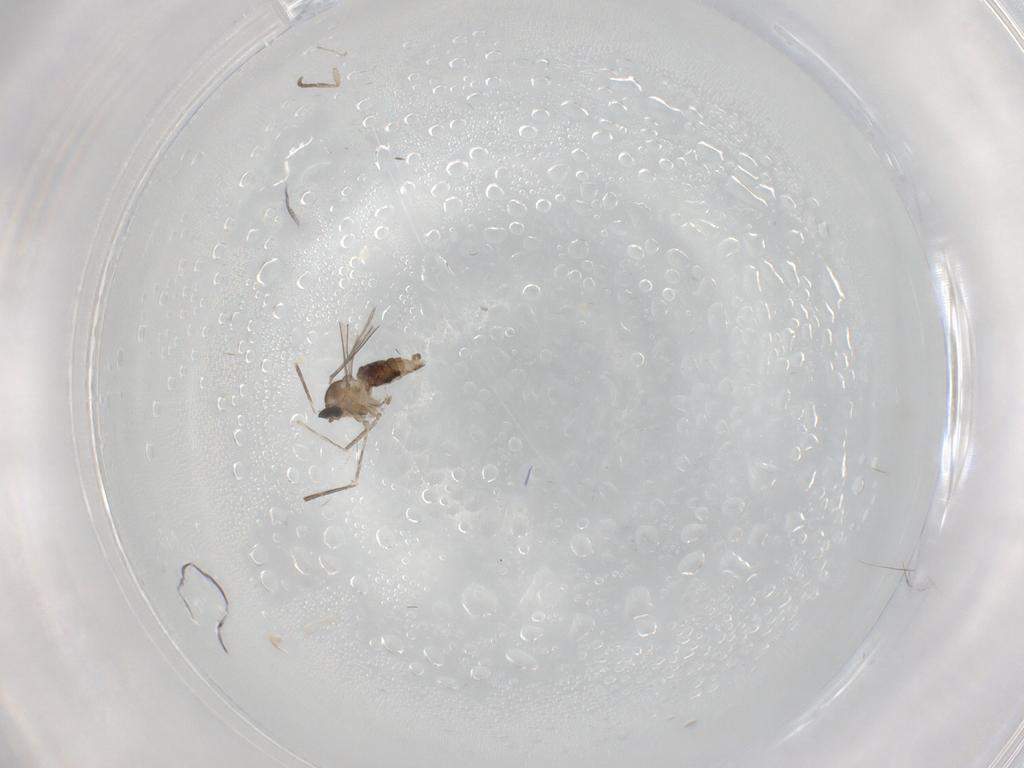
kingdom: Animalia
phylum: Arthropoda
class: Insecta
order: Diptera
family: Cecidomyiidae
